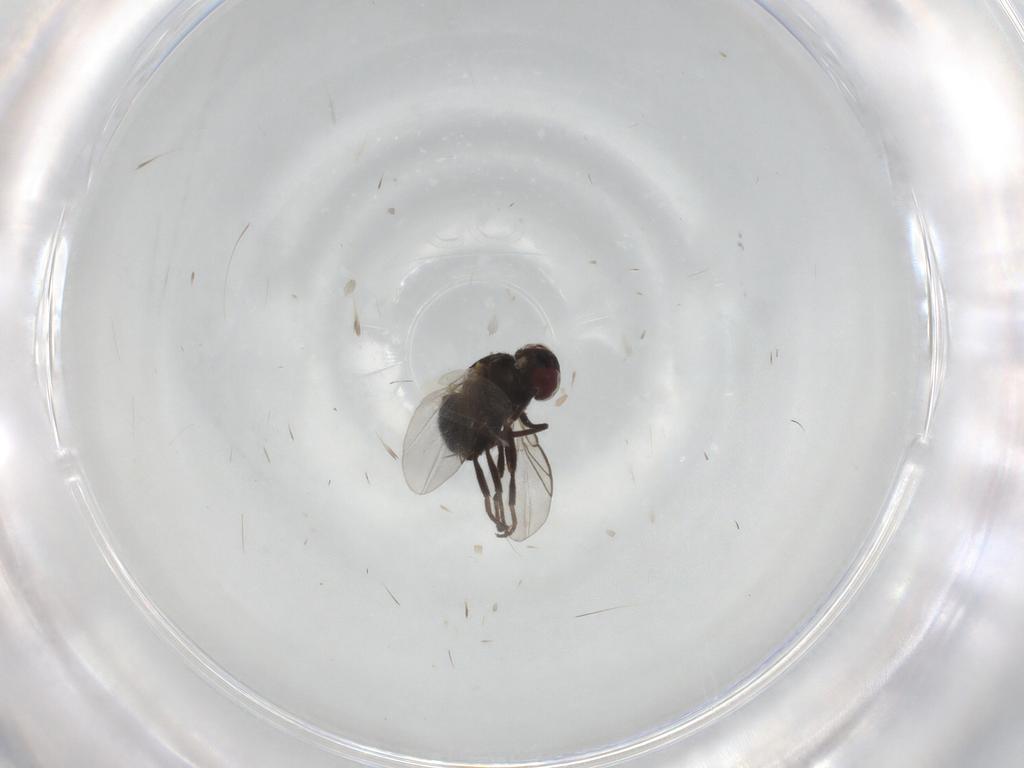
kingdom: Animalia
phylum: Arthropoda
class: Insecta
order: Diptera
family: Agromyzidae
